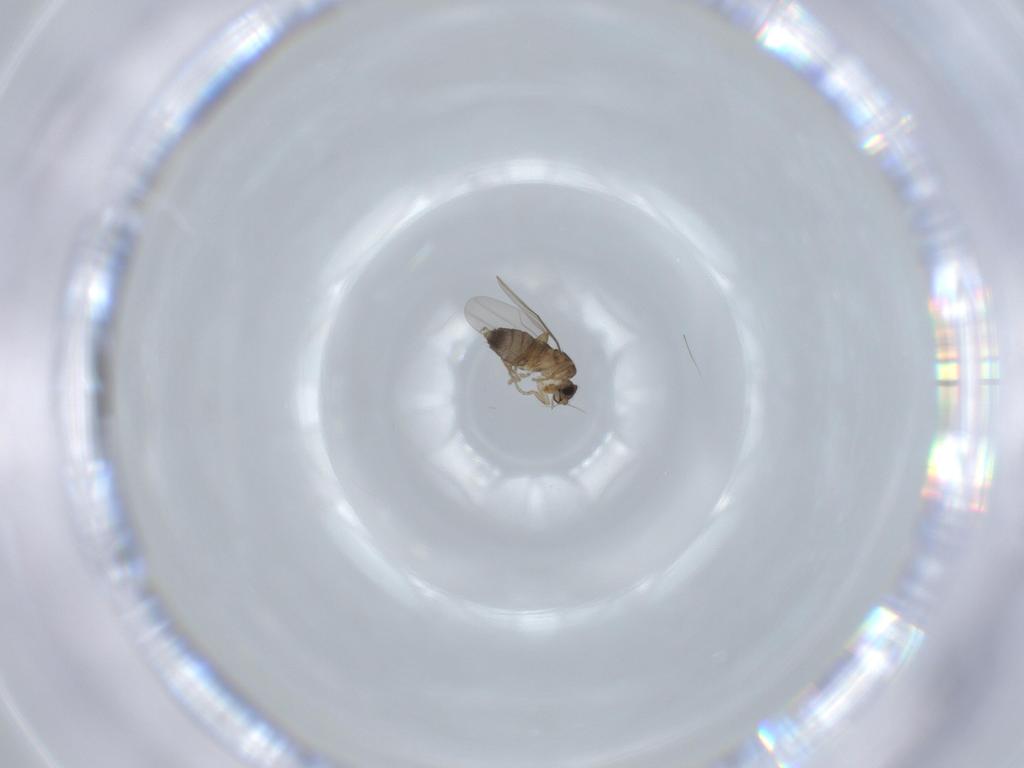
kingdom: Animalia
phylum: Arthropoda
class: Insecta
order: Diptera
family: Phoridae
